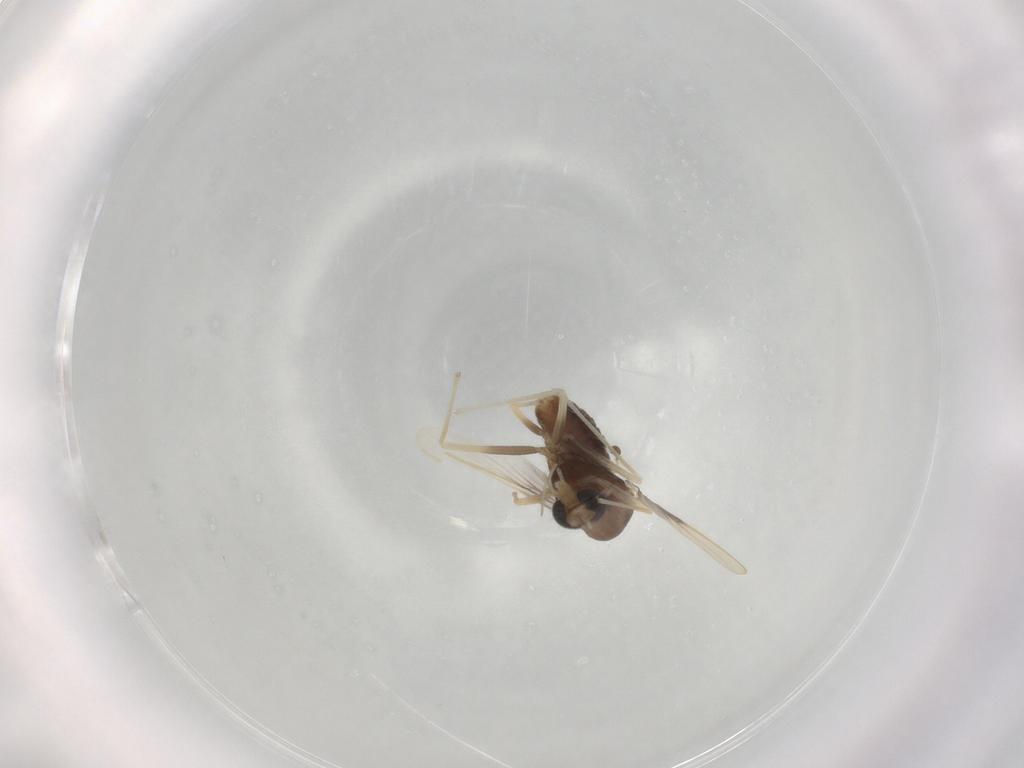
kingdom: Animalia
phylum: Arthropoda
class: Insecta
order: Diptera
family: Chironomidae
